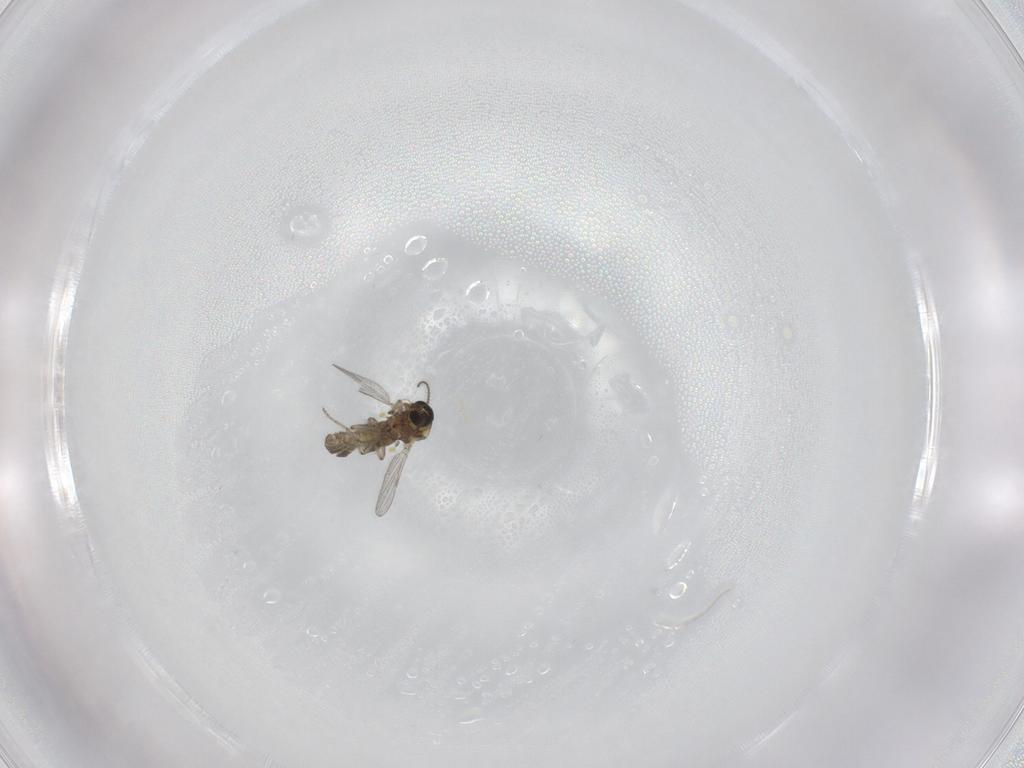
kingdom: Animalia
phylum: Arthropoda
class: Insecta
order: Diptera
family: Ceratopogonidae
